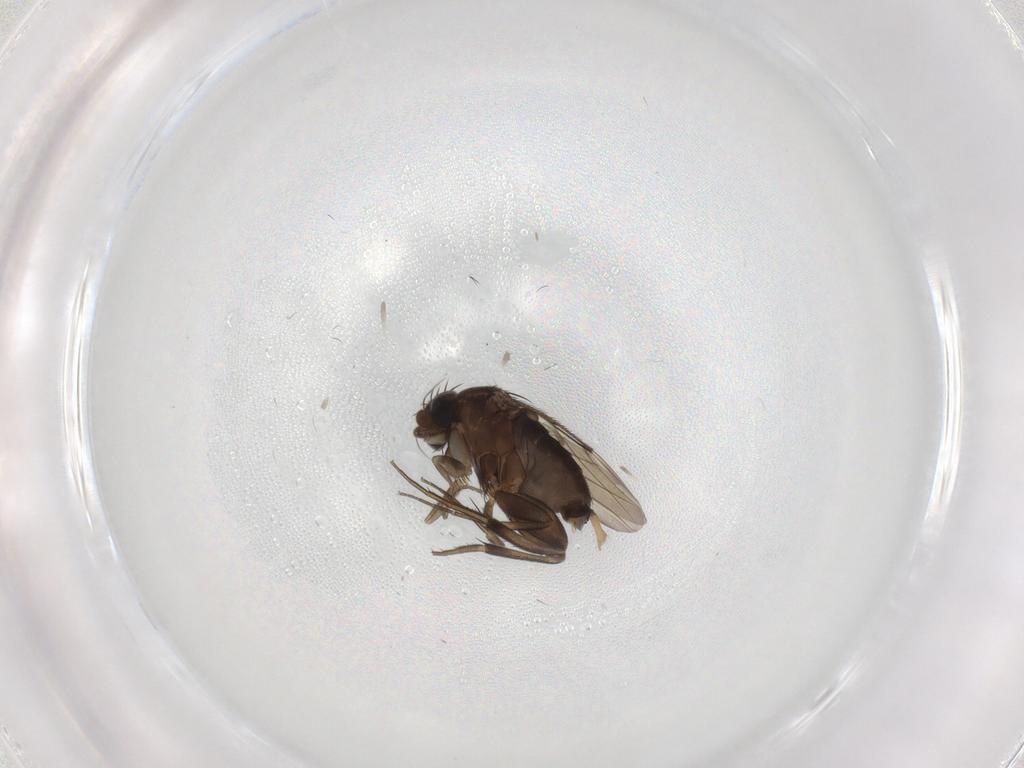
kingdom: Animalia
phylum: Arthropoda
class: Insecta
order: Diptera
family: Phoridae
